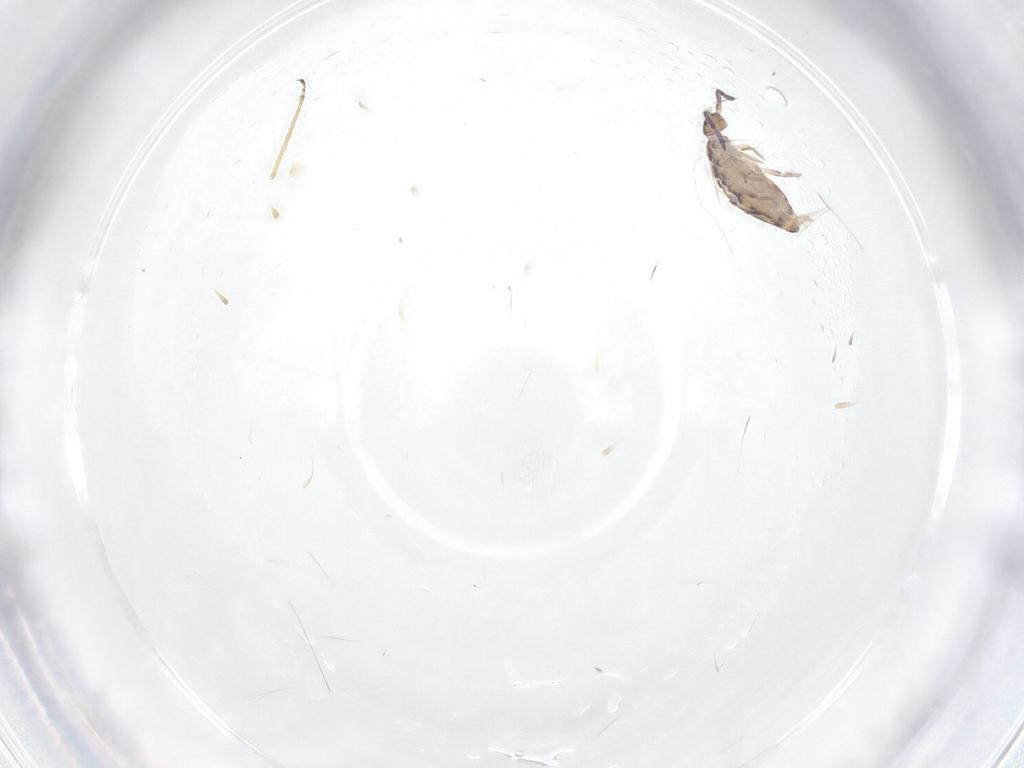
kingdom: Animalia
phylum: Arthropoda
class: Collembola
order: Entomobryomorpha
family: Entomobryidae
